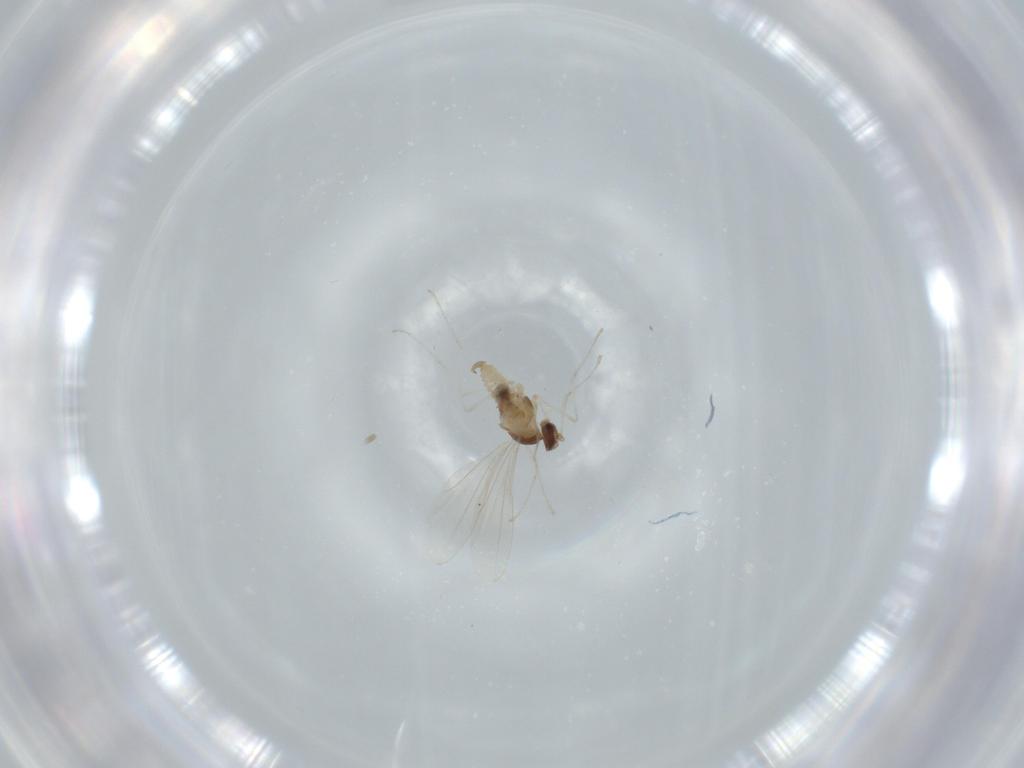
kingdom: Animalia
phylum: Arthropoda
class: Insecta
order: Diptera
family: Cecidomyiidae
